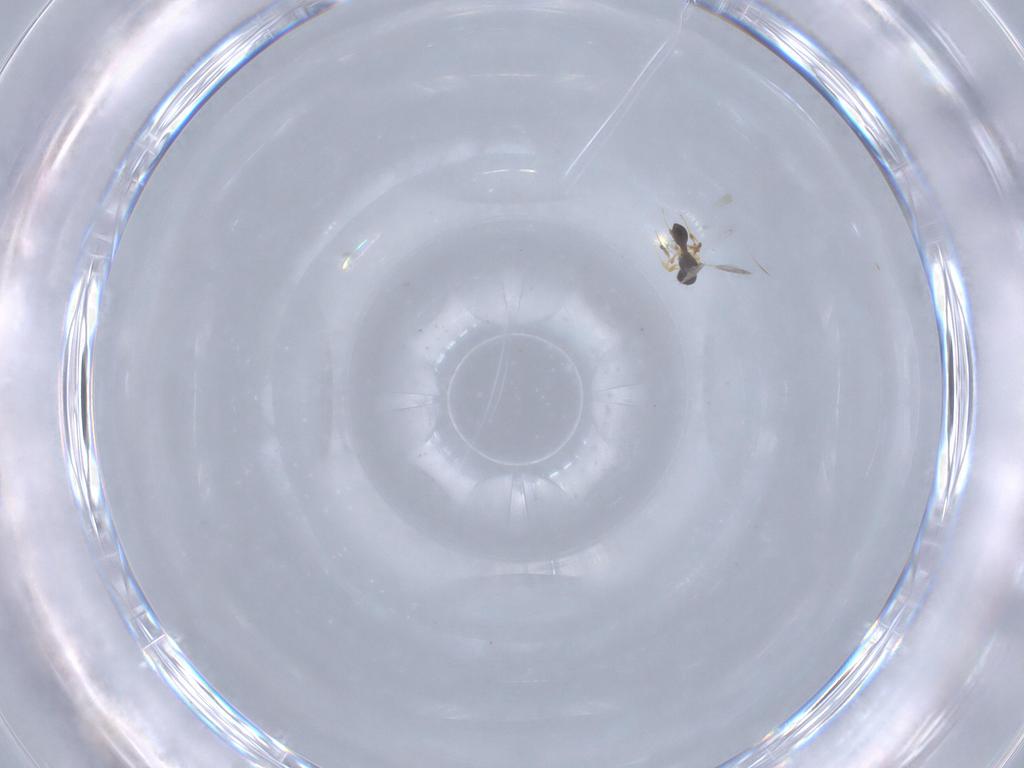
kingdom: Animalia
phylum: Arthropoda
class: Insecta
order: Hymenoptera
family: Platygastridae
